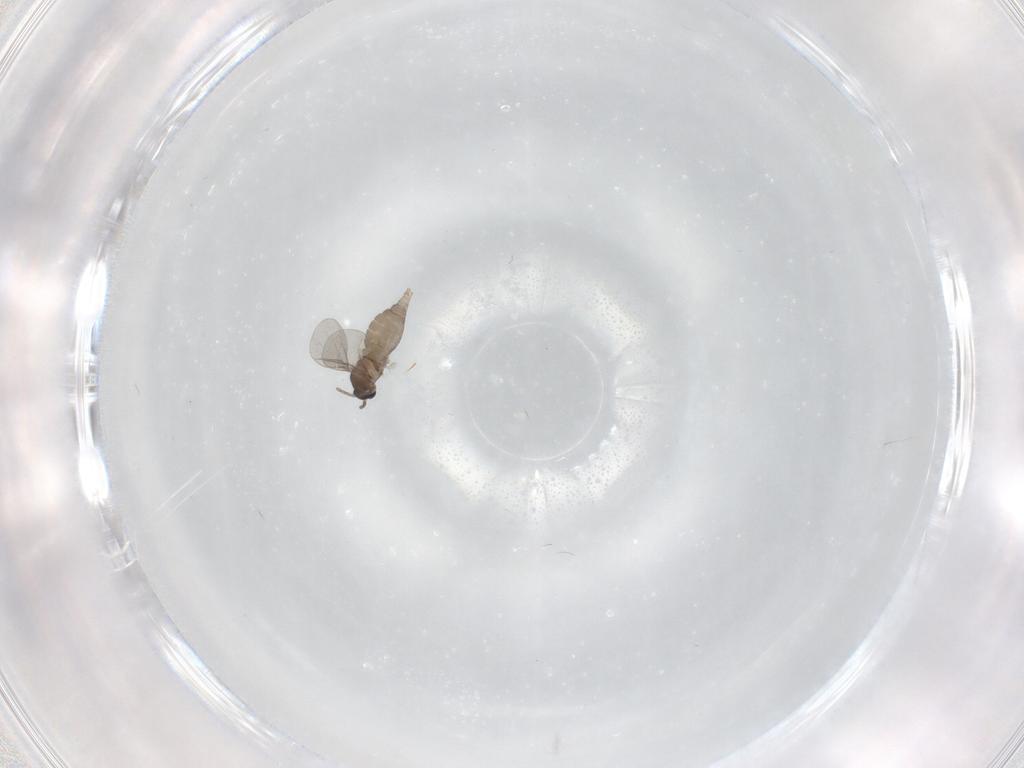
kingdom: Animalia
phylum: Arthropoda
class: Insecta
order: Diptera
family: Cecidomyiidae
